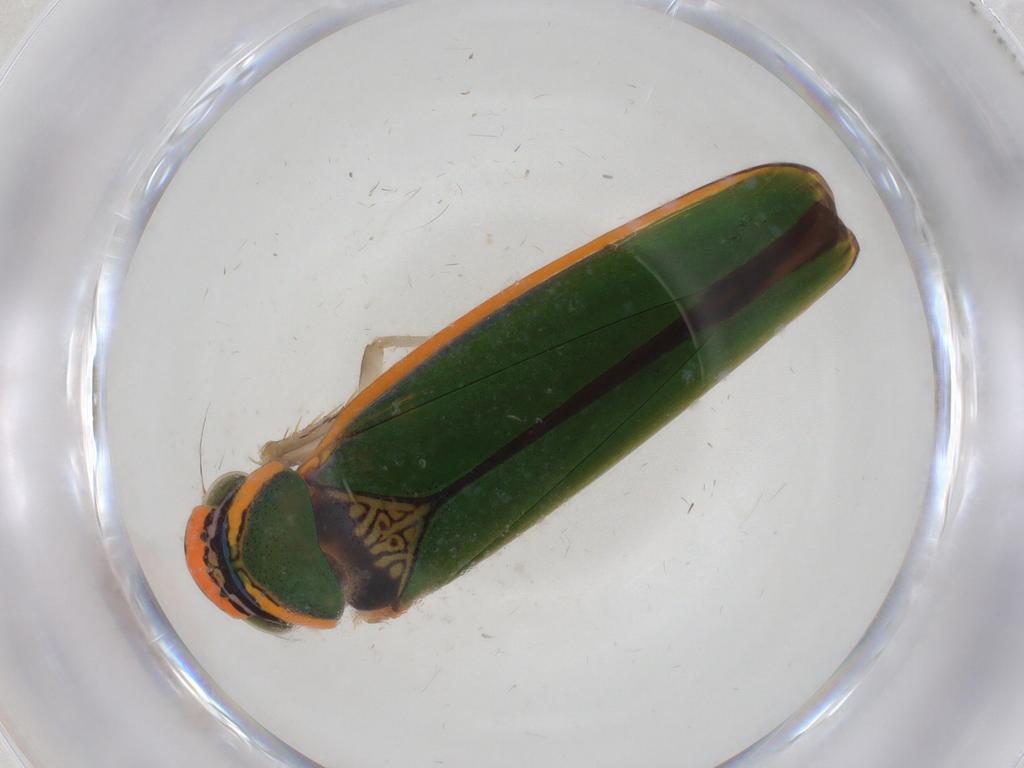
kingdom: Animalia
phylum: Arthropoda
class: Insecta
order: Hemiptera
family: Cicadellidae
